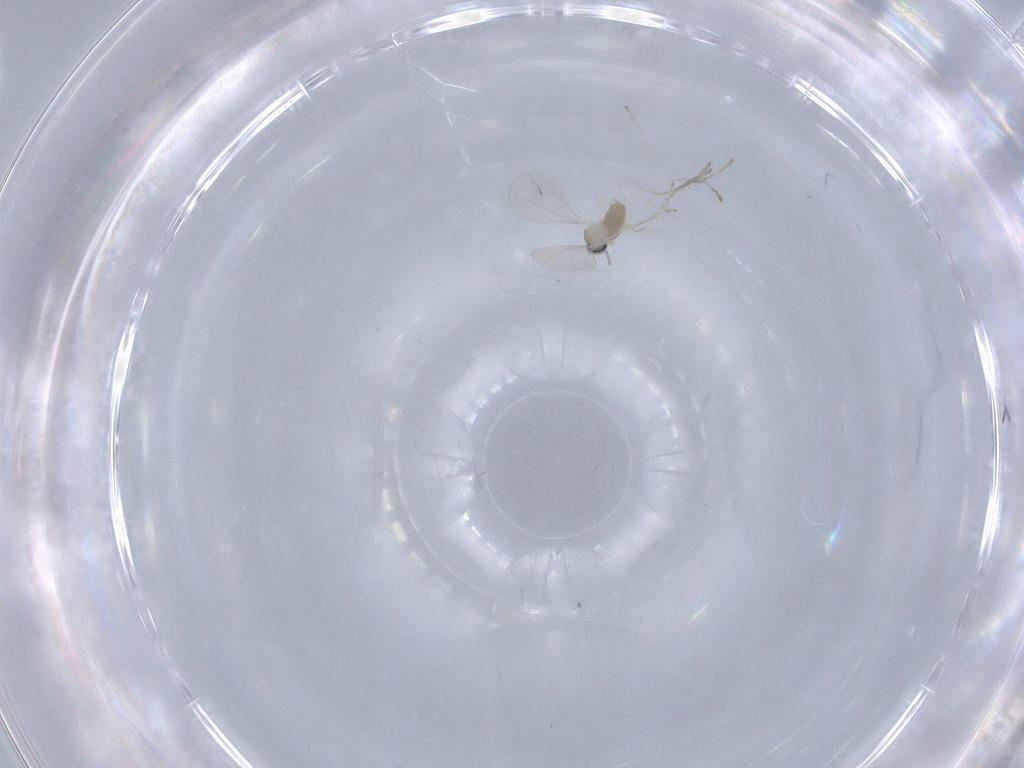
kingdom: Animalia
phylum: Arthropoda
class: Insecta
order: Diptera
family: Cecidomyiidae
